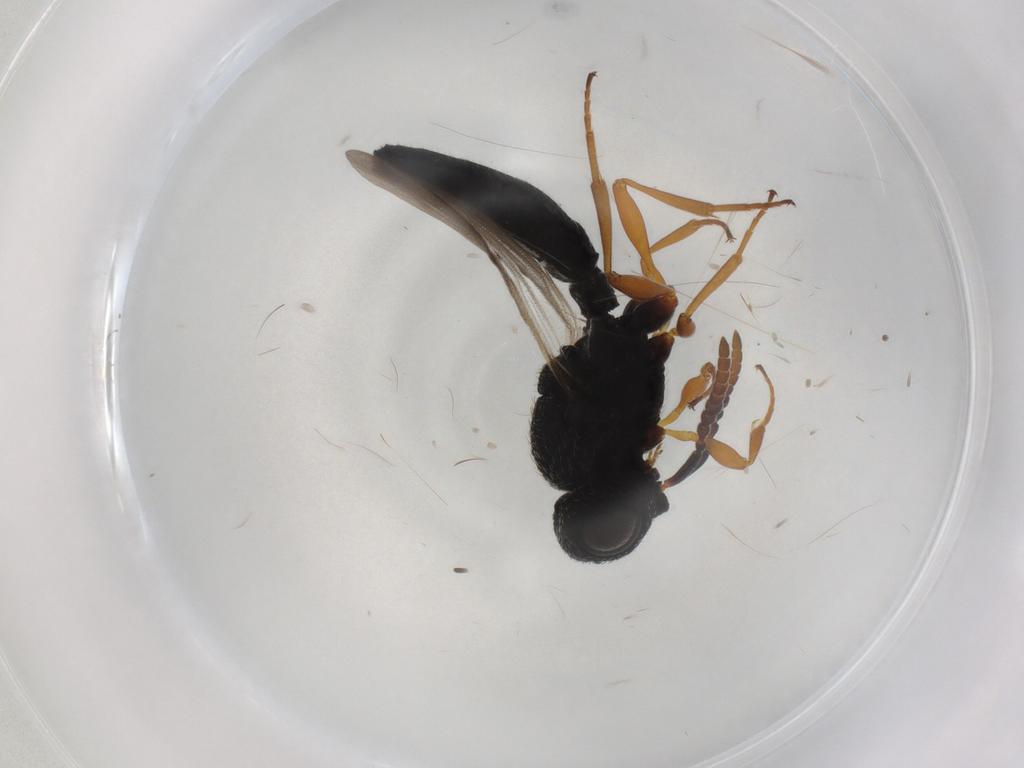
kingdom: Animalia
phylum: Arthropoda
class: Insecta
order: Hymenoptera
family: Scelionidae
